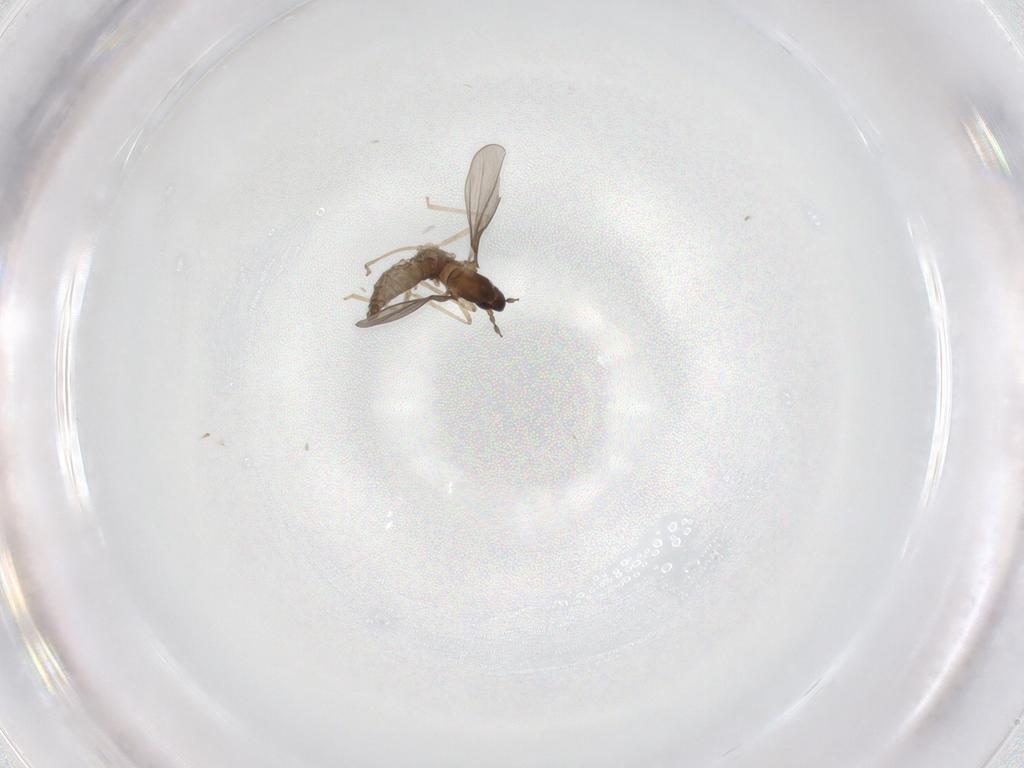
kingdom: Animalia
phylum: Arthropoda
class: Insecta
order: Diptera
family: Cecidomyiidae
